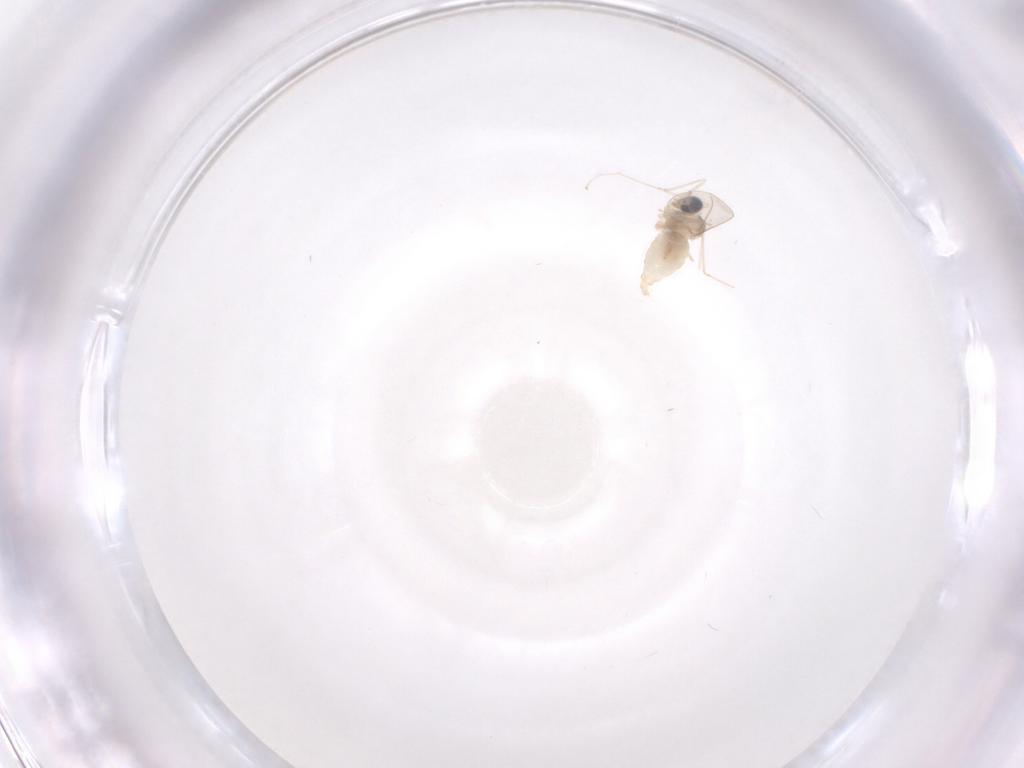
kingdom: Animalia
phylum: Arthropoda
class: Insecta
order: Diptera
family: Cecidomyiidae
